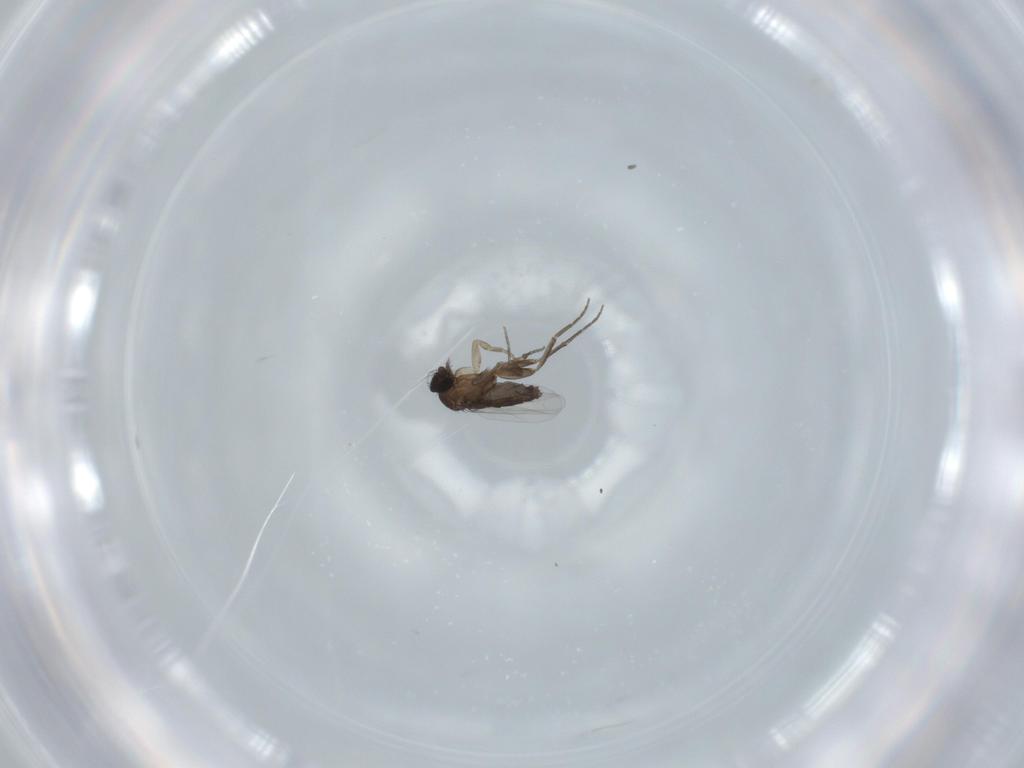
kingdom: Animalia
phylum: Arthropoda
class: Insecta
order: Diptera
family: Phoridae
